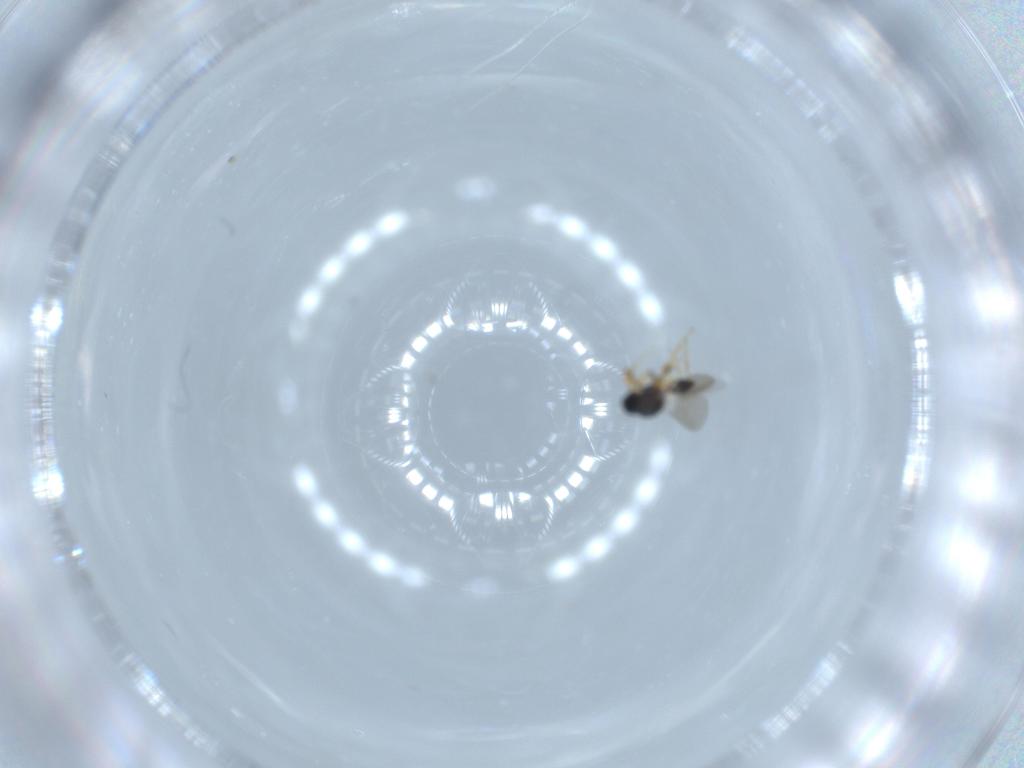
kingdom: Animalia
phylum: Arthropoda
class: Insecta
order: Hymenoptera
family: Platygastridae
